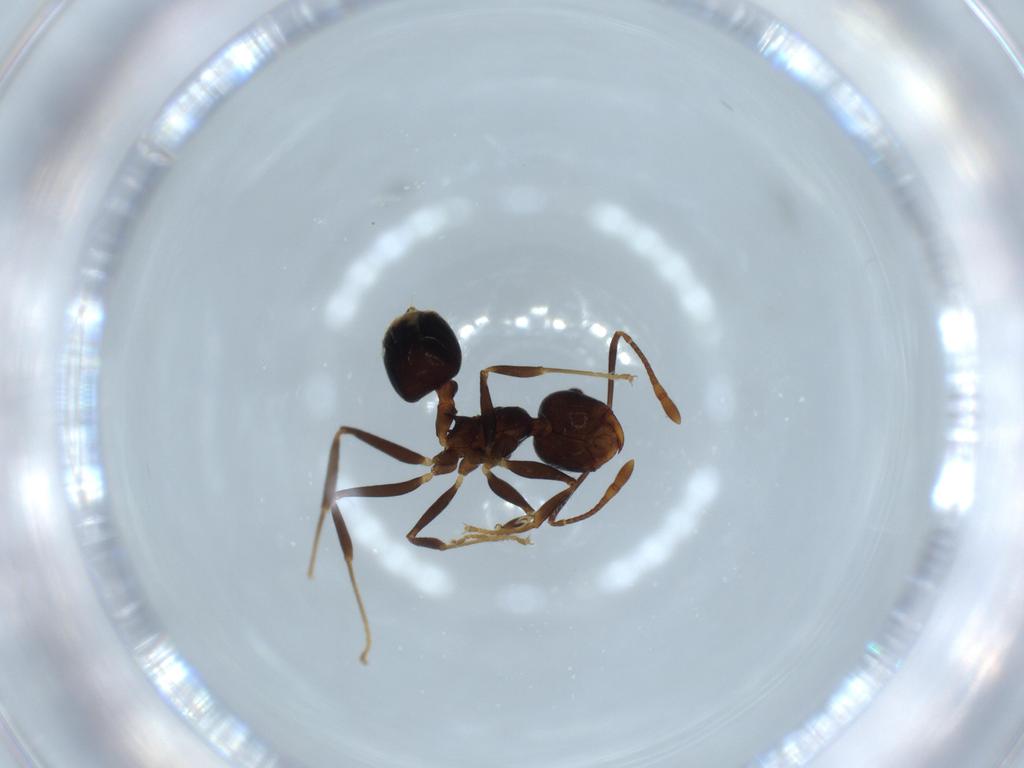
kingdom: Animalia
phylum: Arthropoda
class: Insecta
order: Hymenoptera
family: Formicidae
